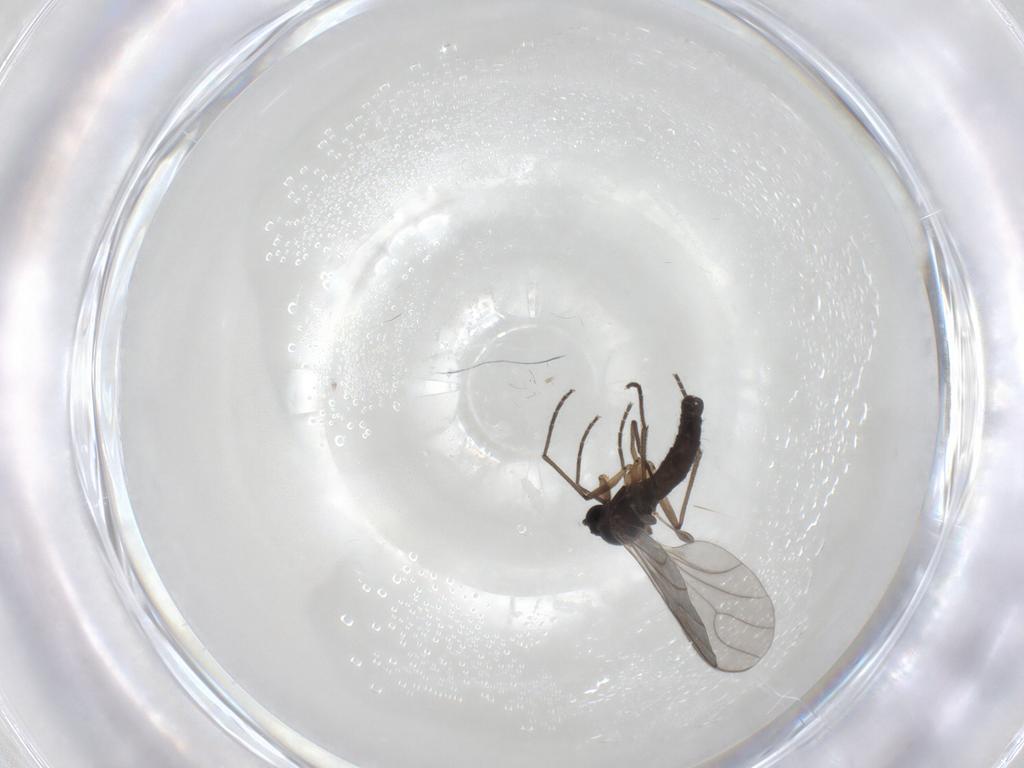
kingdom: Animalia
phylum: Arthropoda
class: Insecta
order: Diptera
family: Sciaridae
